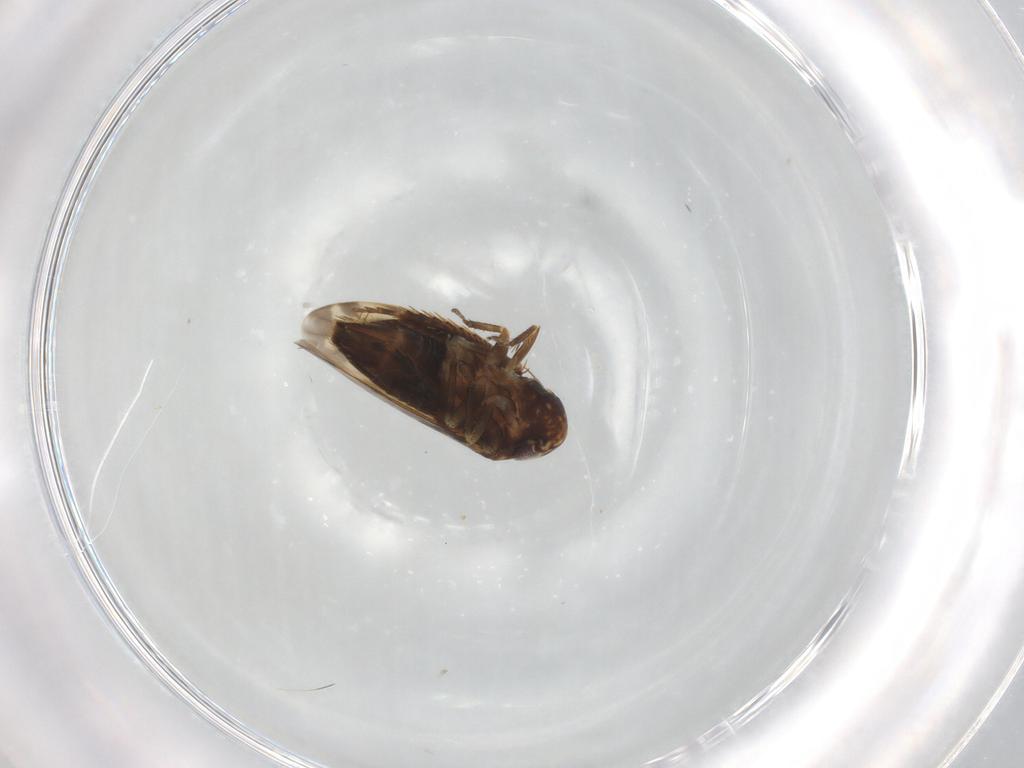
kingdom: Animalia
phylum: Arthropoda
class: Insecta
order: Hemiptera
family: Cicadellidae
